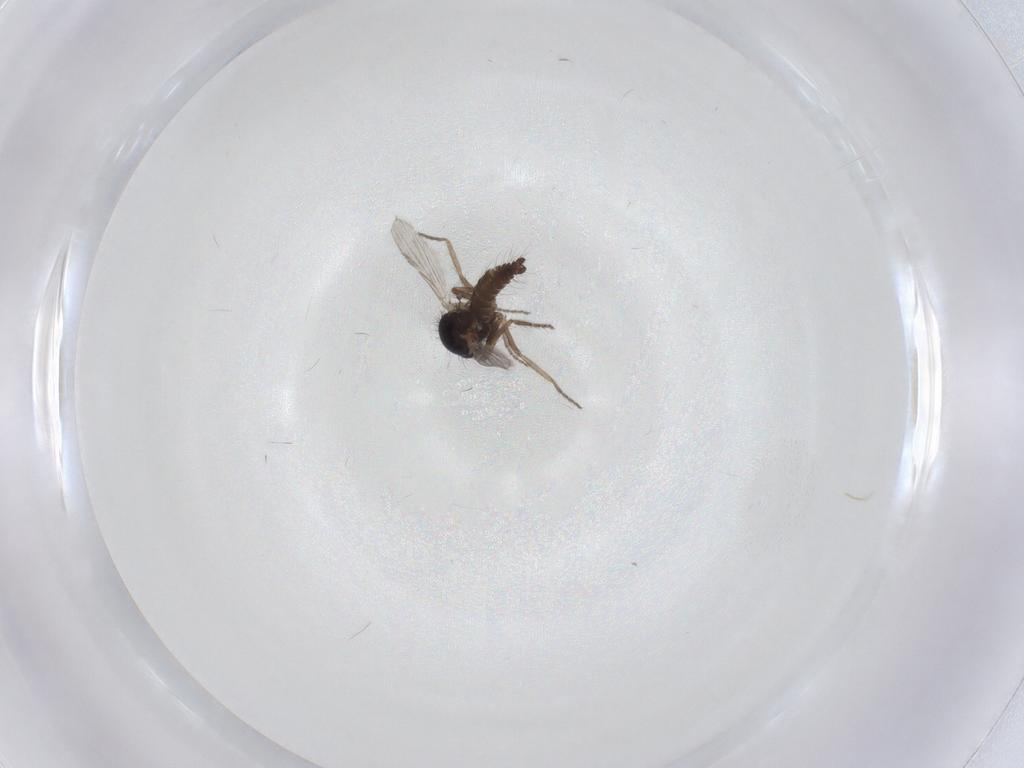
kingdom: Animalia
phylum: Arthropoda
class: Insecta
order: Diptera
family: Ceratopogonidae
